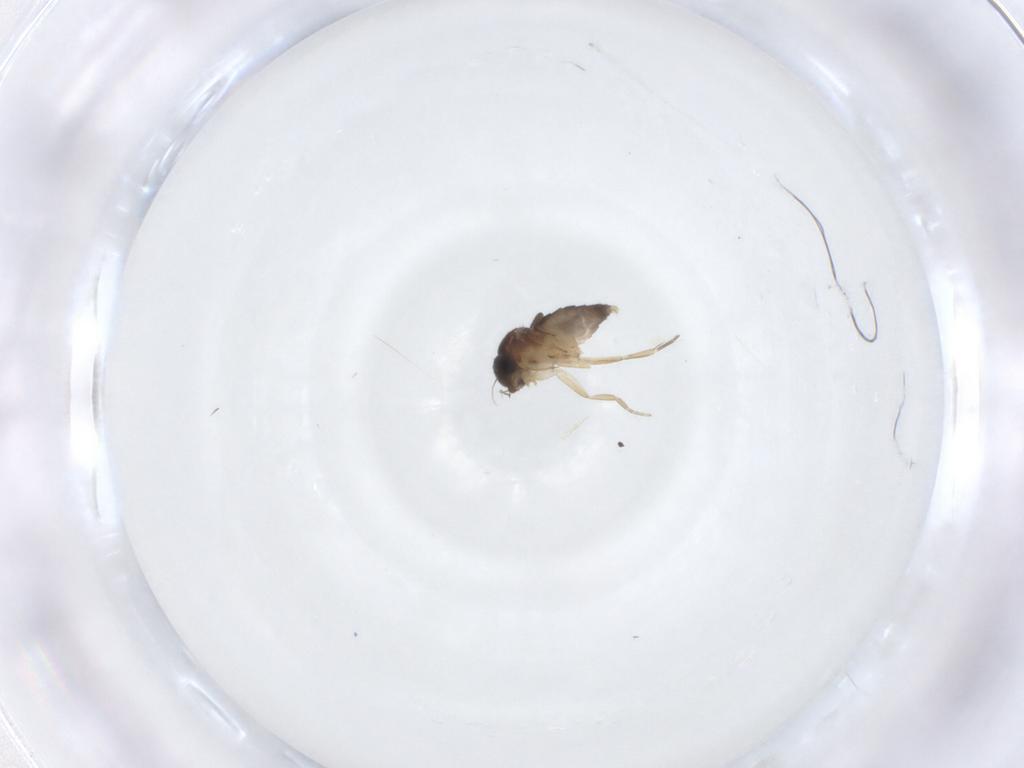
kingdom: Animalia
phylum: Arthropoda
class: Insecta
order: Diptera
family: Phoridae
